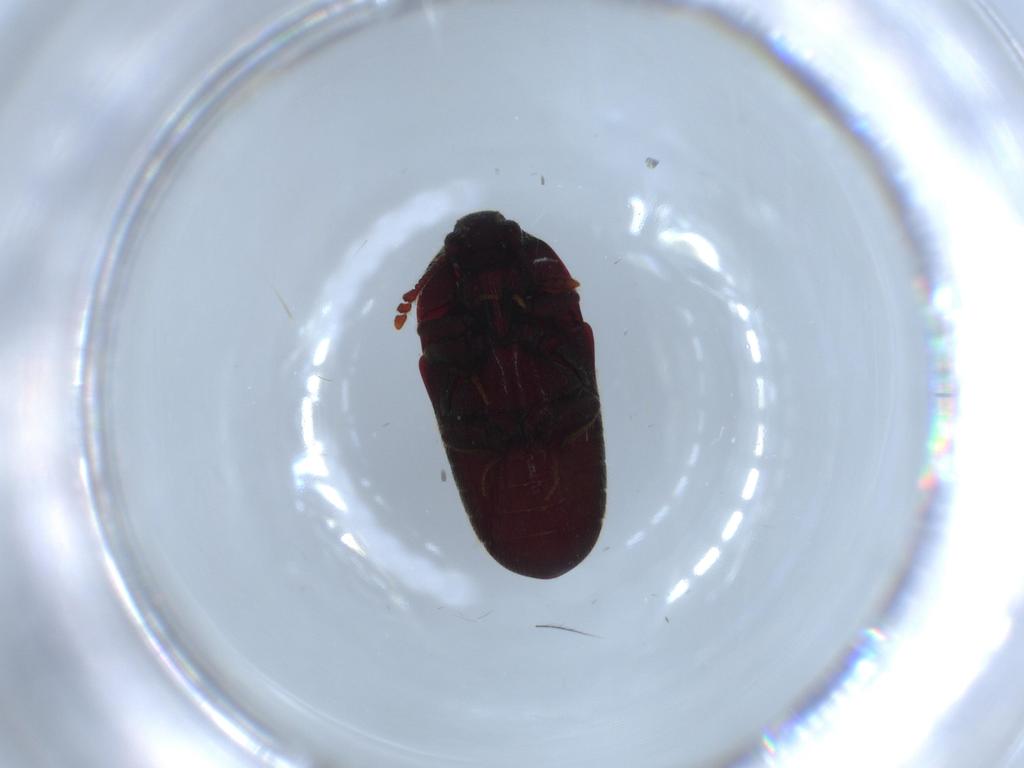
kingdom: Animalia
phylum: Arthropoda
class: Insecta
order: Coleoptera
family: Throscidae
